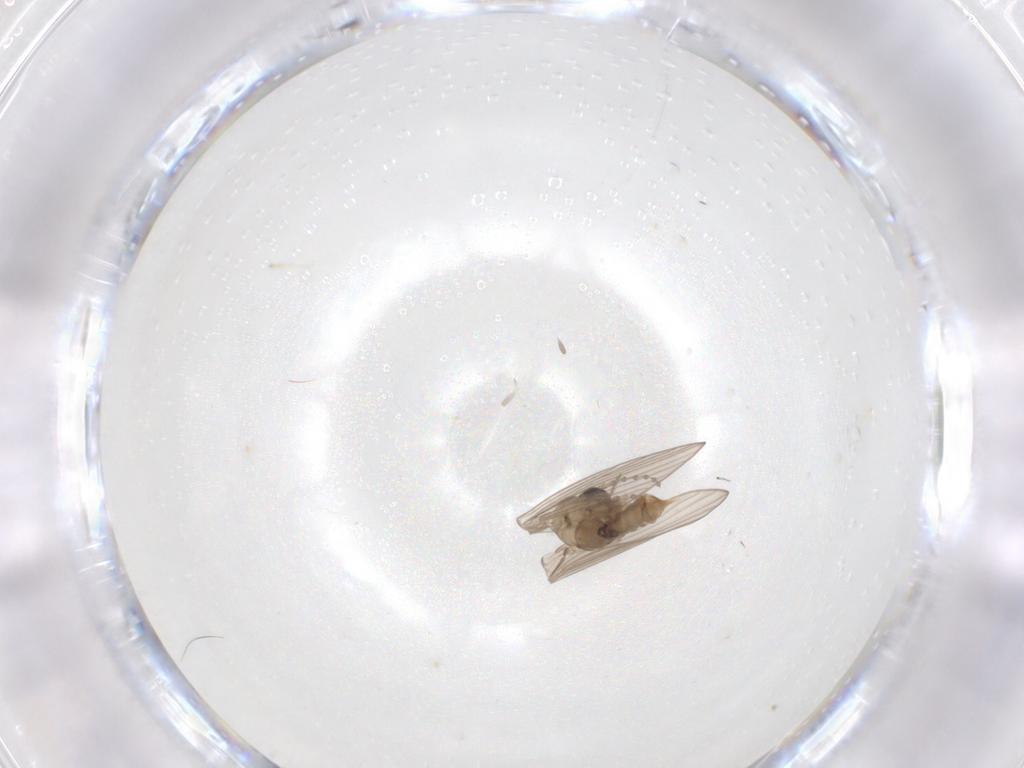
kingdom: Animalia
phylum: Arthropoda
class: Insecta
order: Diptera
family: Psychodidae
